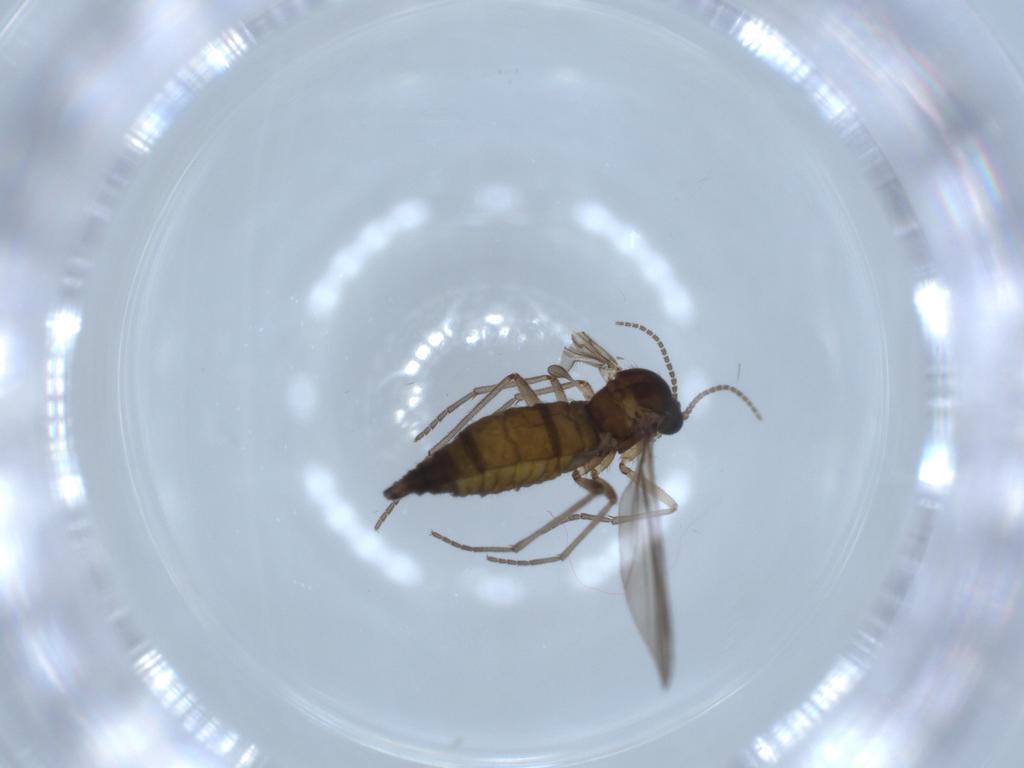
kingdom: Animalia
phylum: Arthropoda
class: Insecta
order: Diptera
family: Sciaridae
